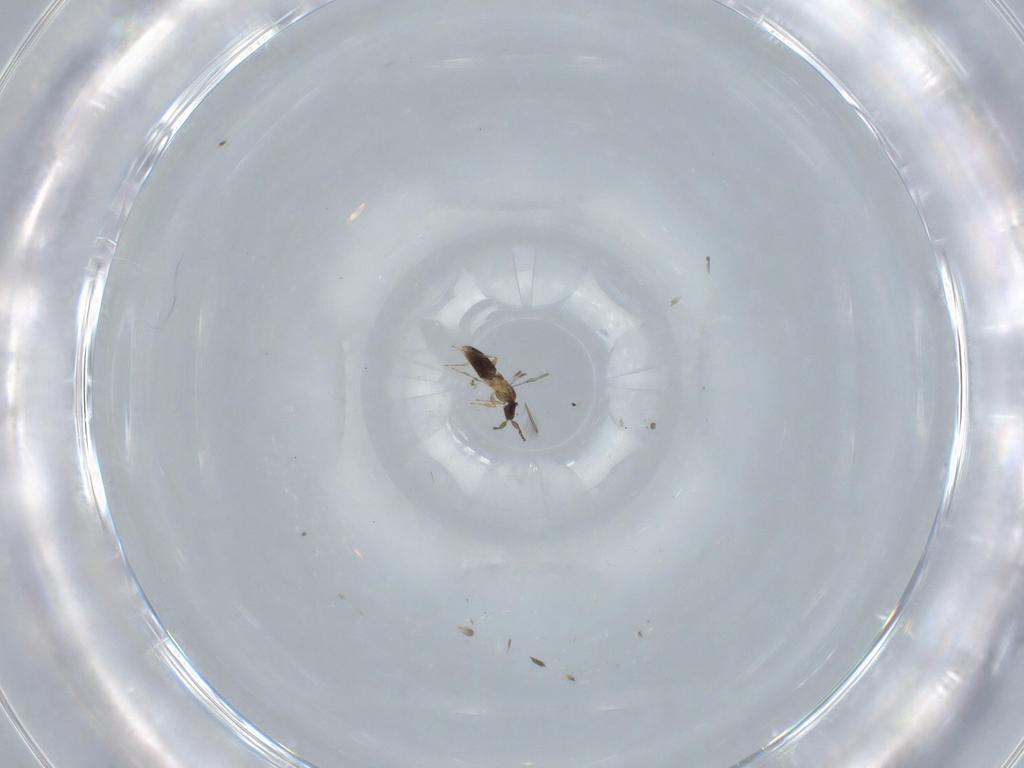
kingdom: Animalia
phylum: Arthropoda
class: Insecta
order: Hymenoptera
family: Mymaridae
